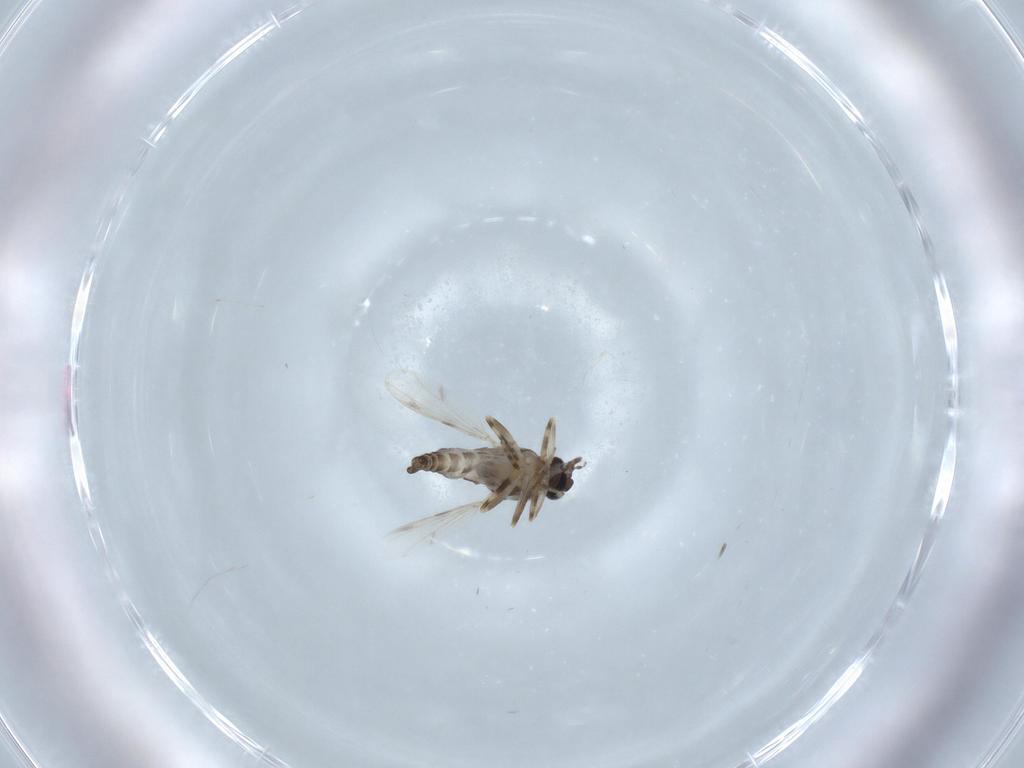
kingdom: Animalia
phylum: Arthropoda
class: Insecta
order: Diptera
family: Ceratopogonidae
